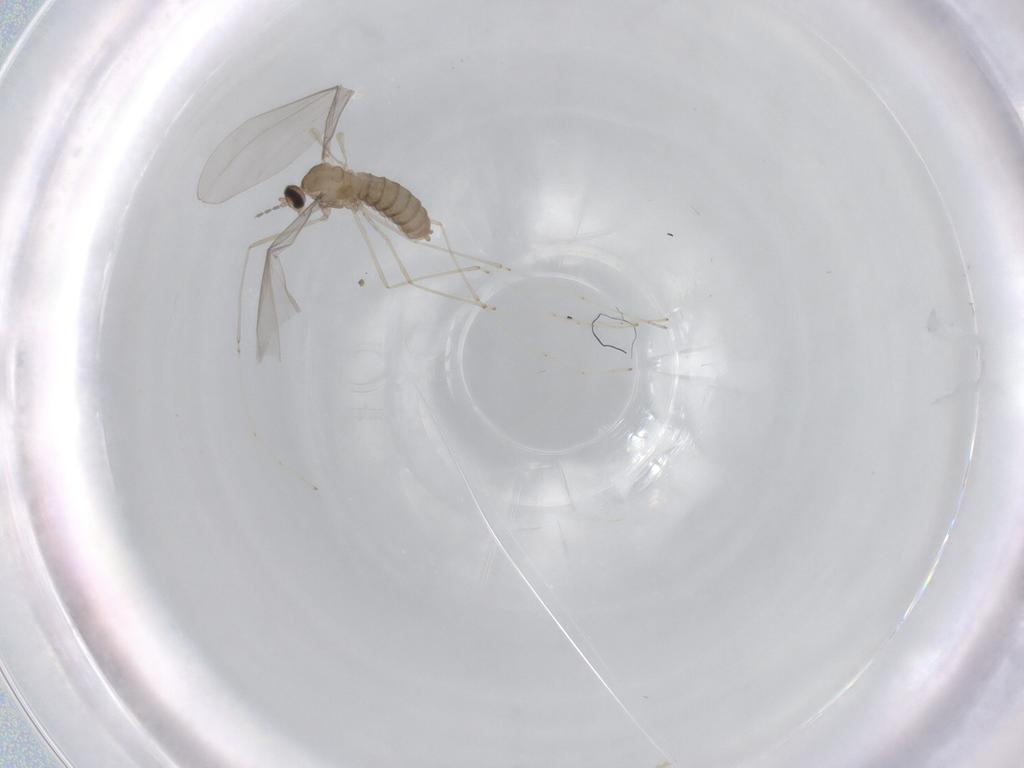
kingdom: Animalia
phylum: Arthropoda
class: Insecta
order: Diptera
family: Cecidomyiidae
